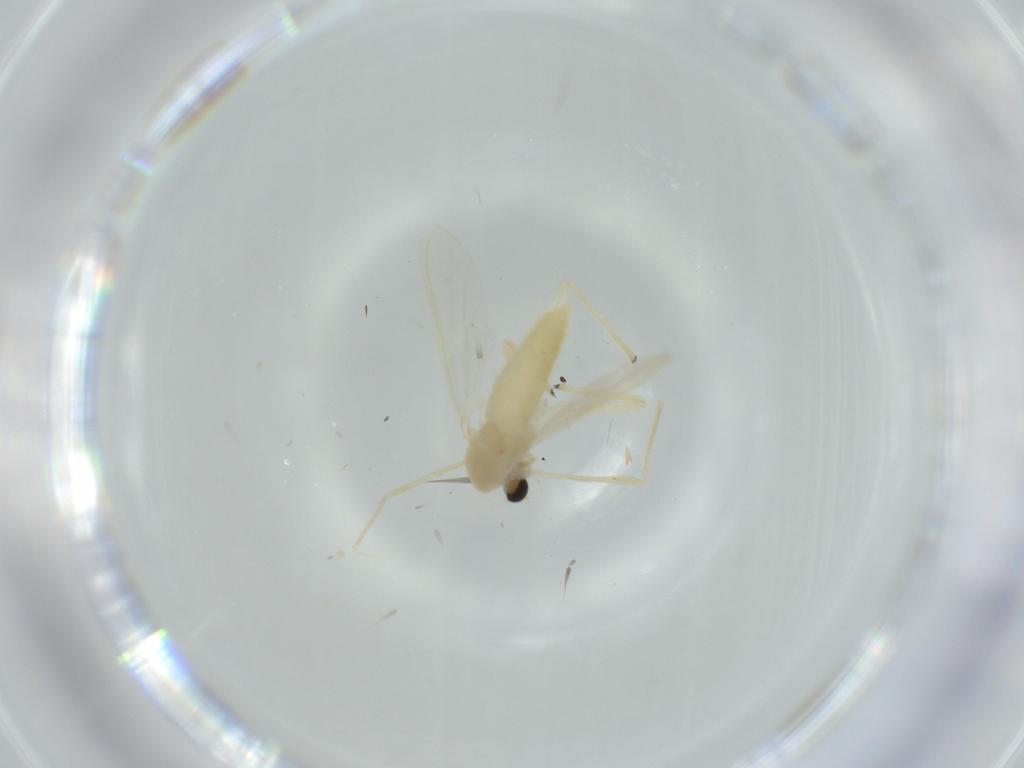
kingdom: Animalia
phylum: Arthropoda
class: Insecta
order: Diptera
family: Chironomidae
